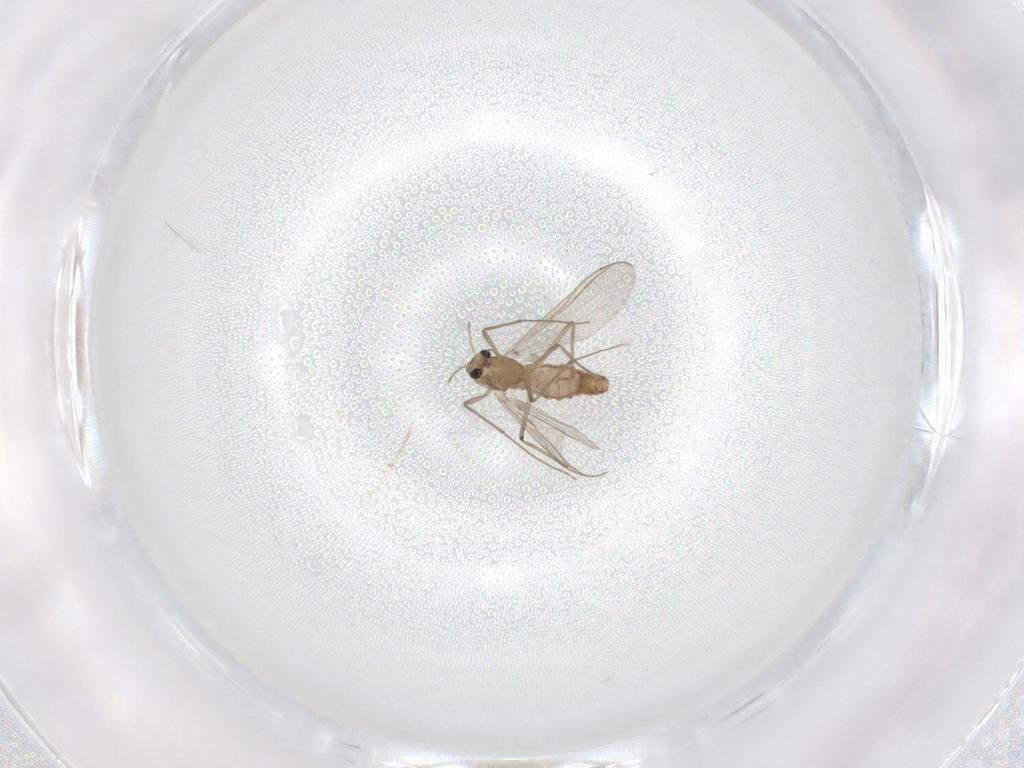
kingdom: Animalia
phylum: Arthropoda
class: Insecta
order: Diptera
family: Chironomidae
